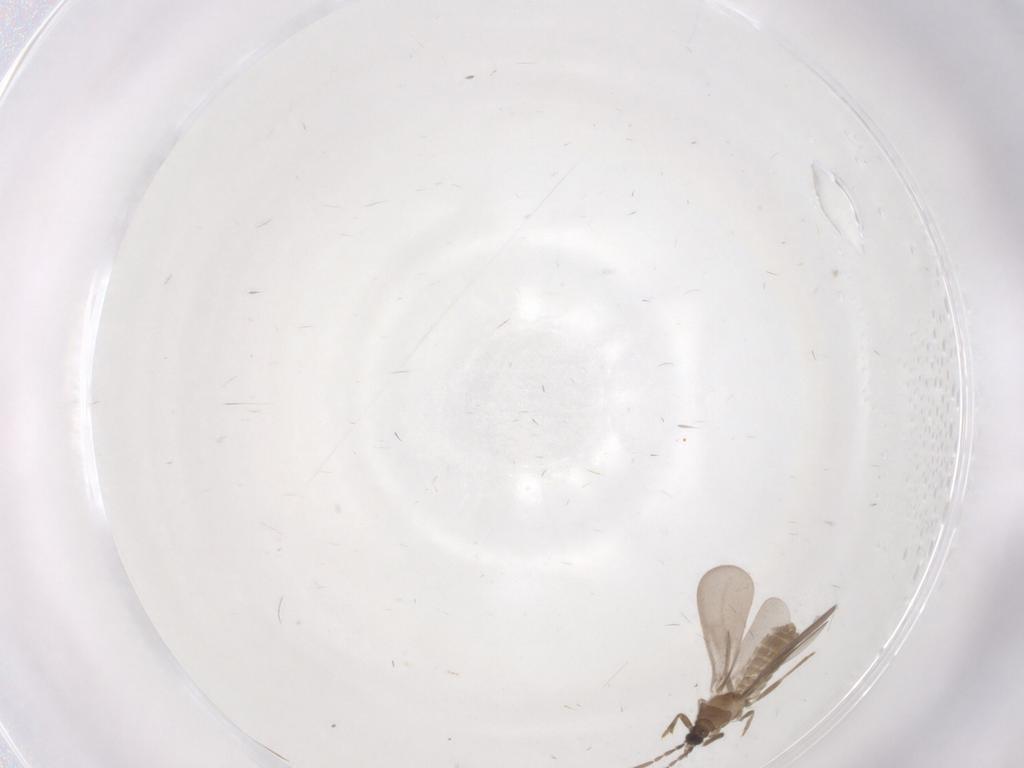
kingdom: Animalia
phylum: Arthropoda
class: Insecta
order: Hemiptera
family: Enicocephalidae
